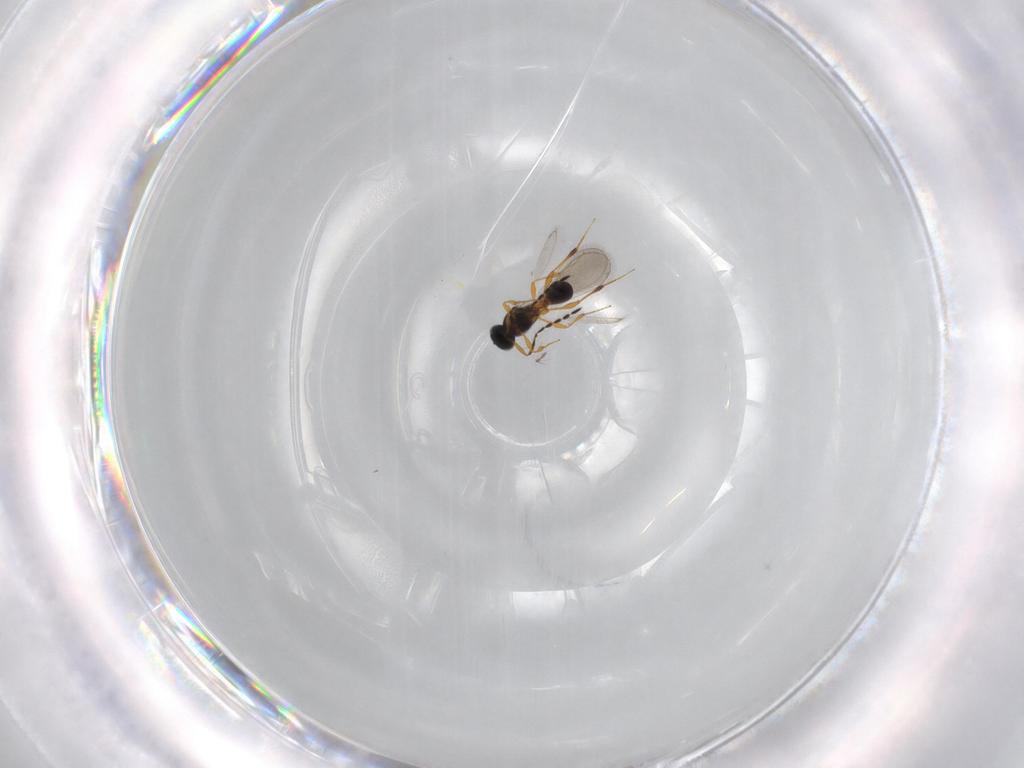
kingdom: Animalia
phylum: Arthropoda
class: Insecta
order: Hymenoptera
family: Platygastridae
